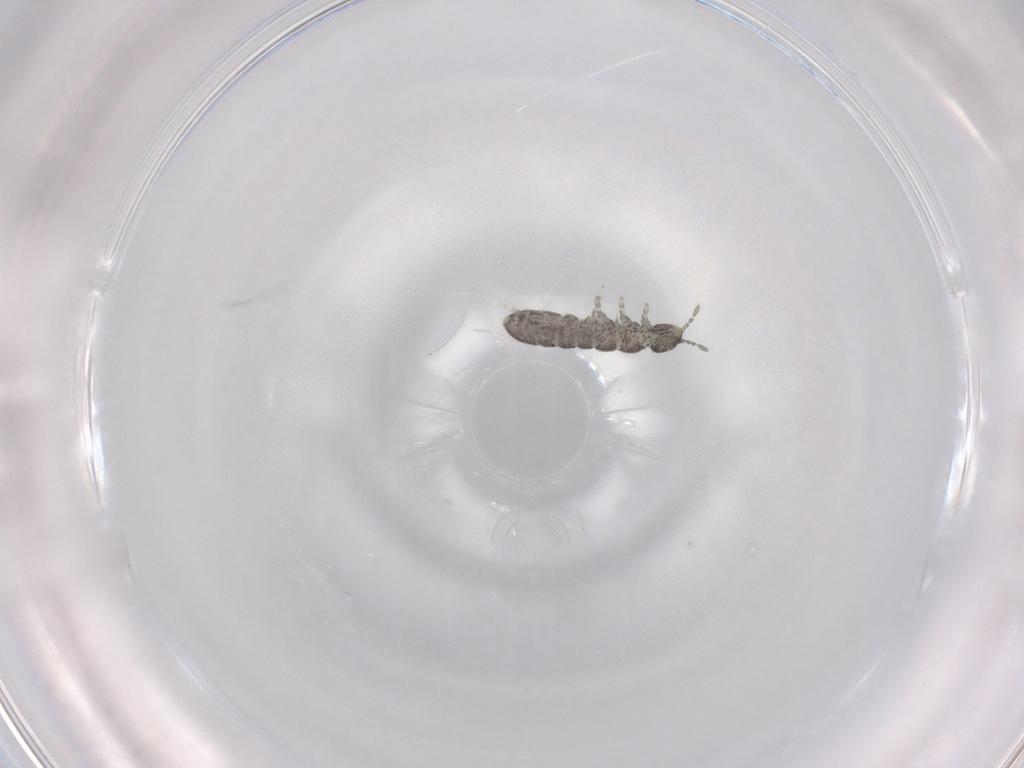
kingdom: Animalia
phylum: Arthropoda
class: Collembola
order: Entomobryomorpha
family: Isotomidae
